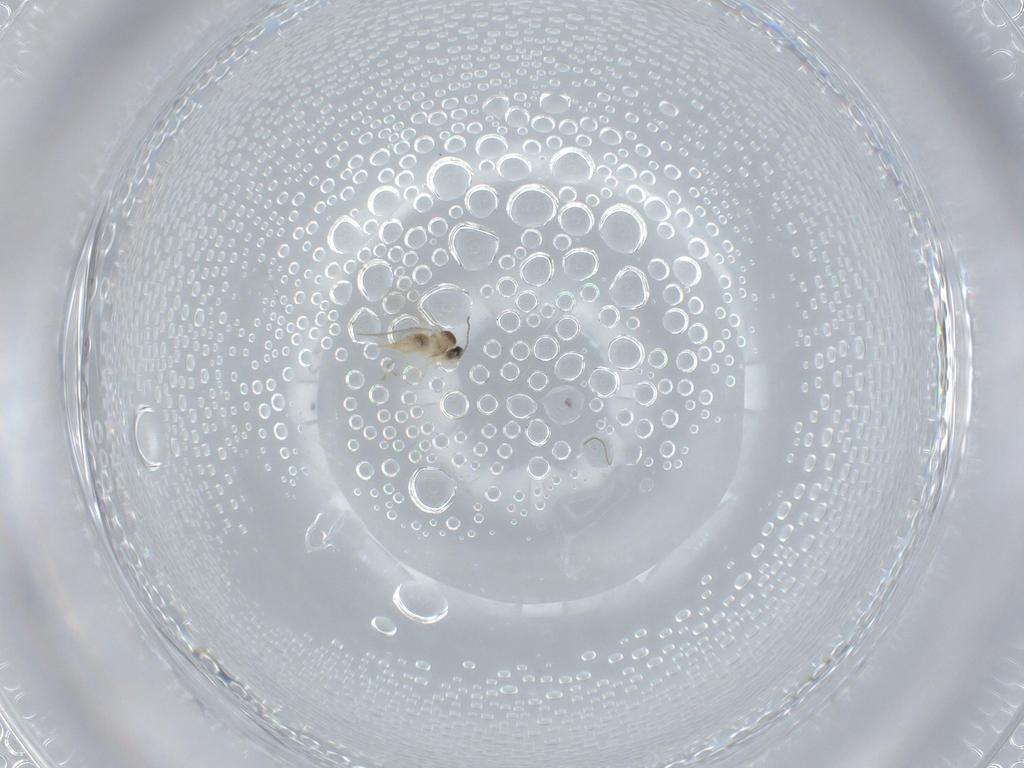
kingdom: Animalia
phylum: Arthropoda
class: Insecta
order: Diptera
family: Cecidomyiidae
